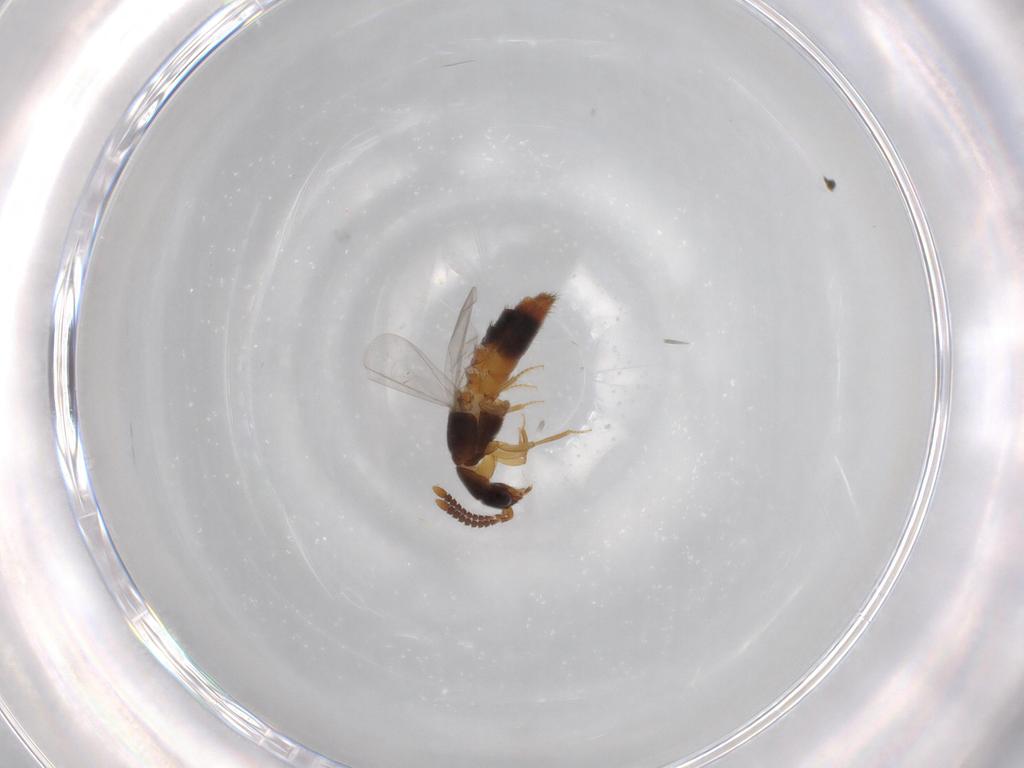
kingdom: Animalia
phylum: Arthropoda
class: Insecta
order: Coleoptera
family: Staphylinidae
